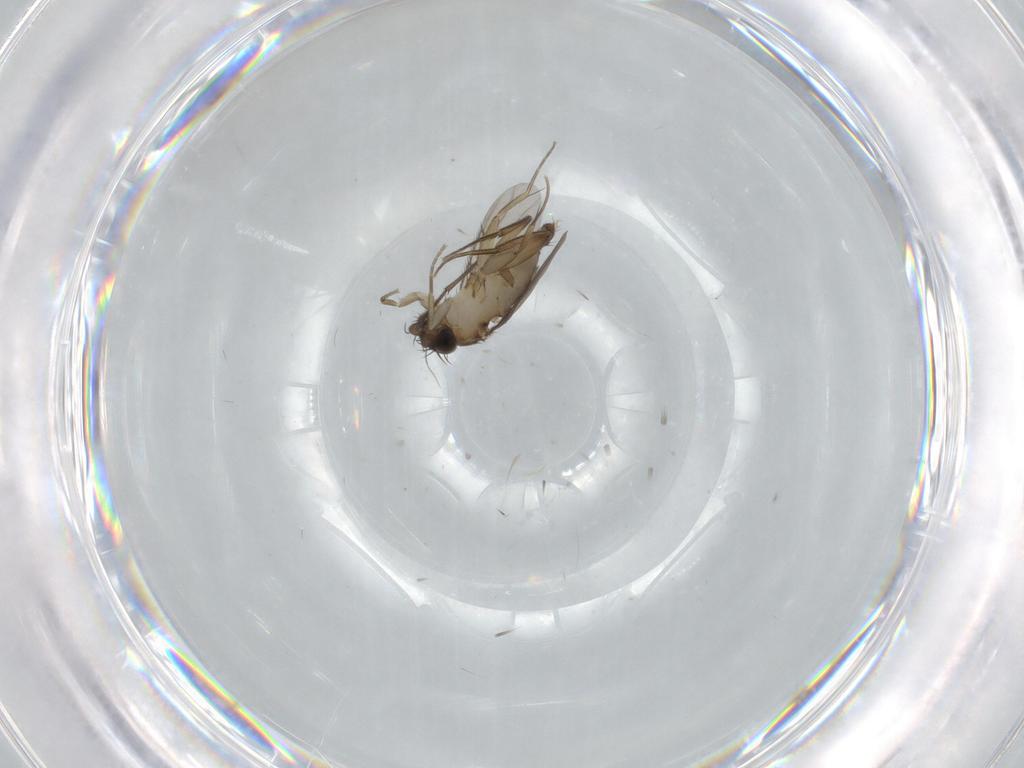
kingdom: Animalia
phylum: Arthropoda
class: Insecta
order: Diptera
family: Phoridae
